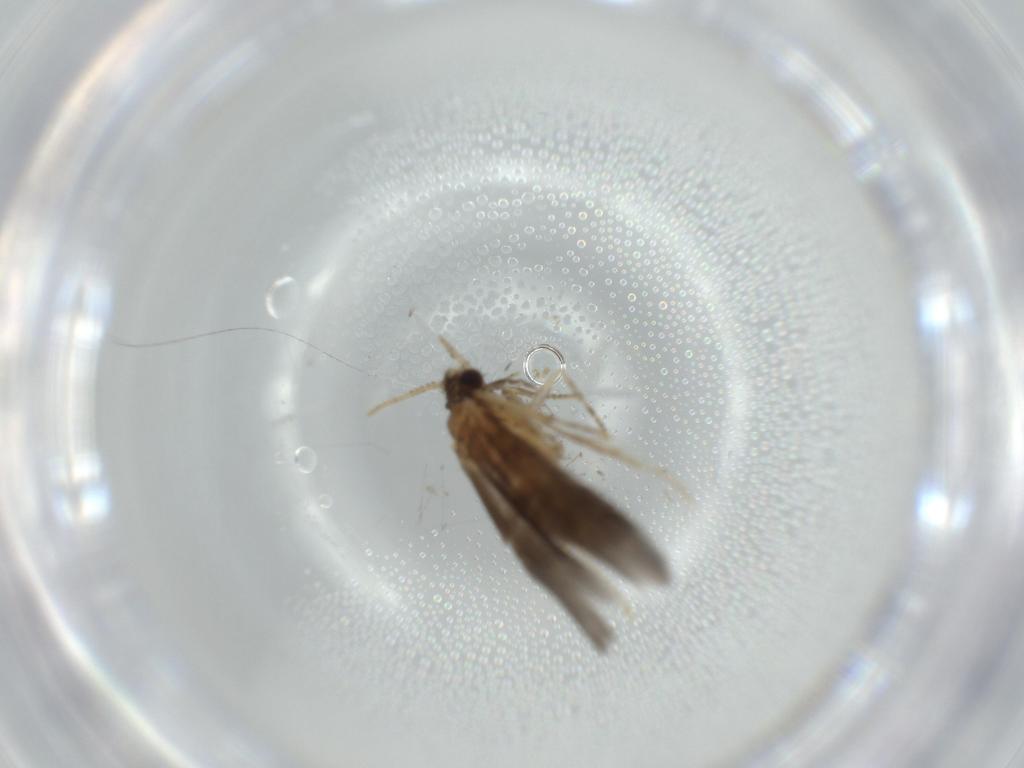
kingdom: Animalia
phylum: Arthropoda
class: Insecta
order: Trichoptera
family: Hydroptilidae
